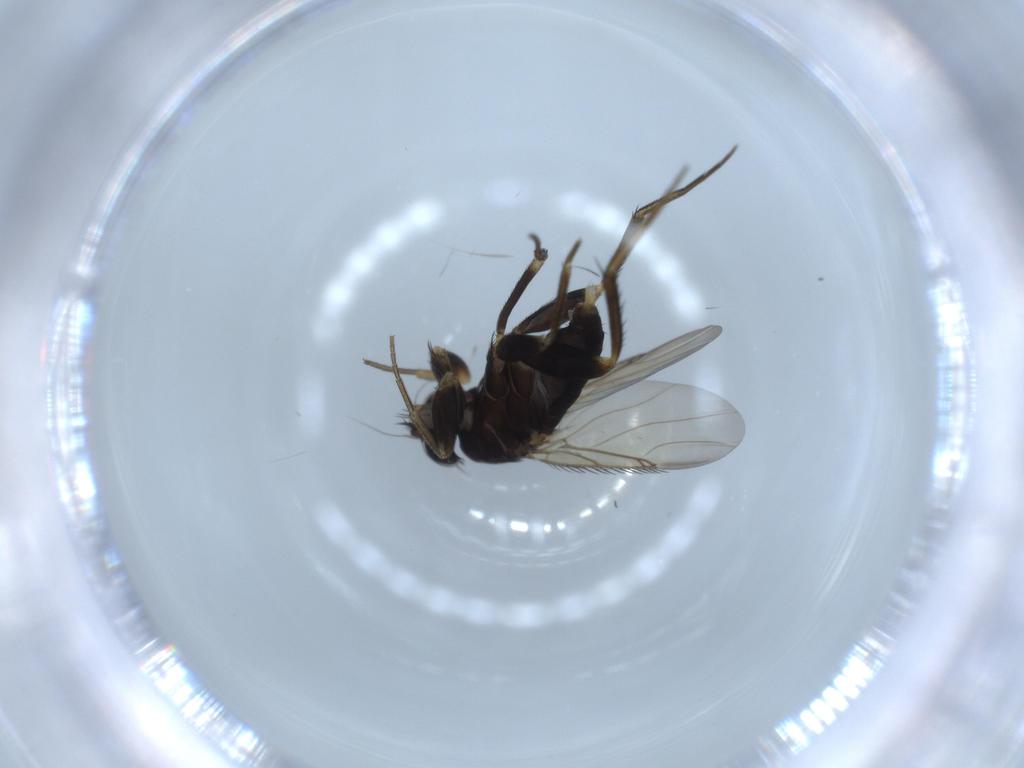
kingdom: Animalia
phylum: Arthropoda
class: Insecta
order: Diptera
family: Phoridae
